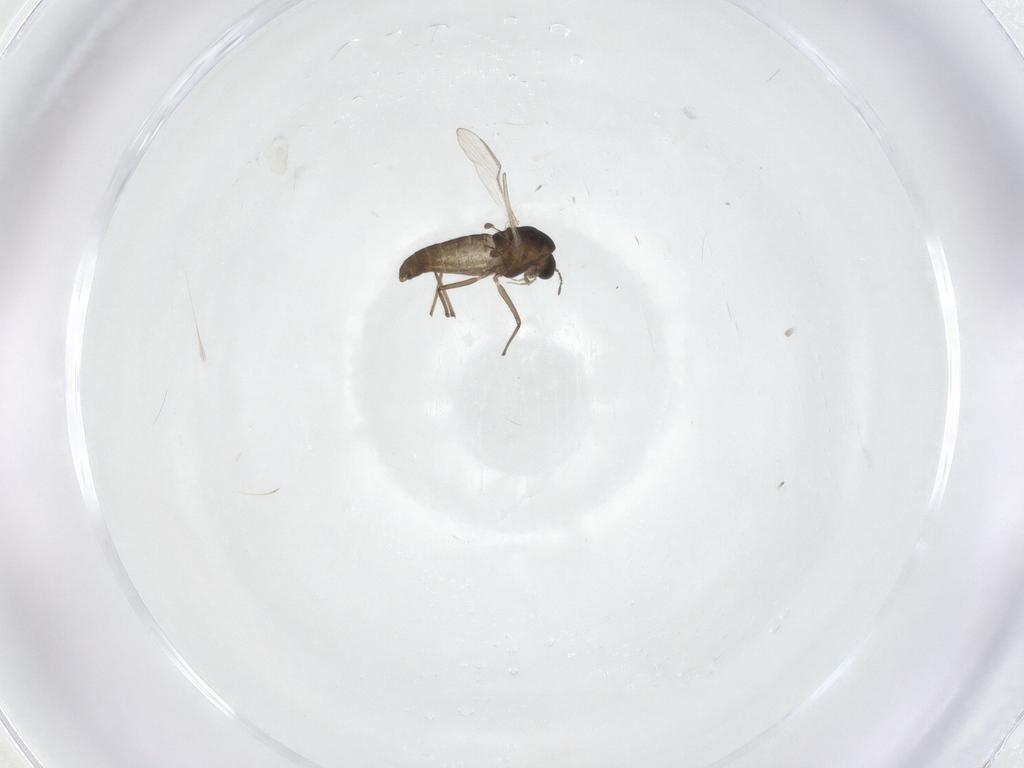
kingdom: Animalia
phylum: Arthropoda
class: Insecta
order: Diptera
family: Chironomidae
